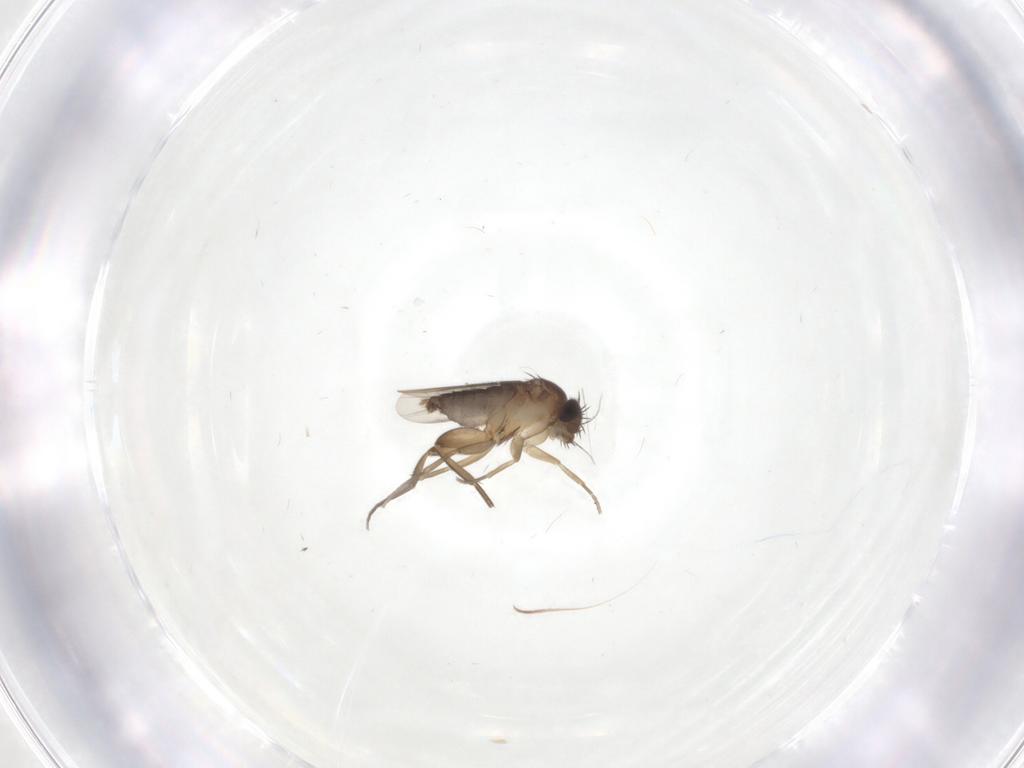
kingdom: Animalia
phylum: Arthropoda
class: Insecta
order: Diptera
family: Phoridae
